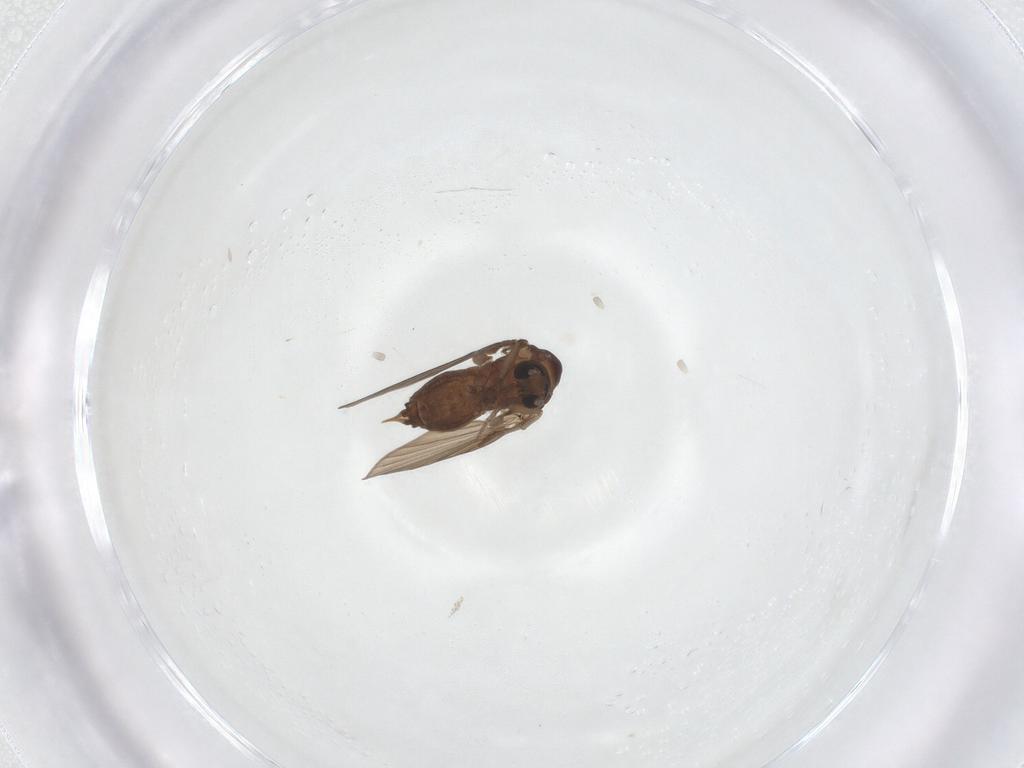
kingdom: Animalia
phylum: Arthropoda
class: Insecta
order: Diptera
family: Psychodidae
